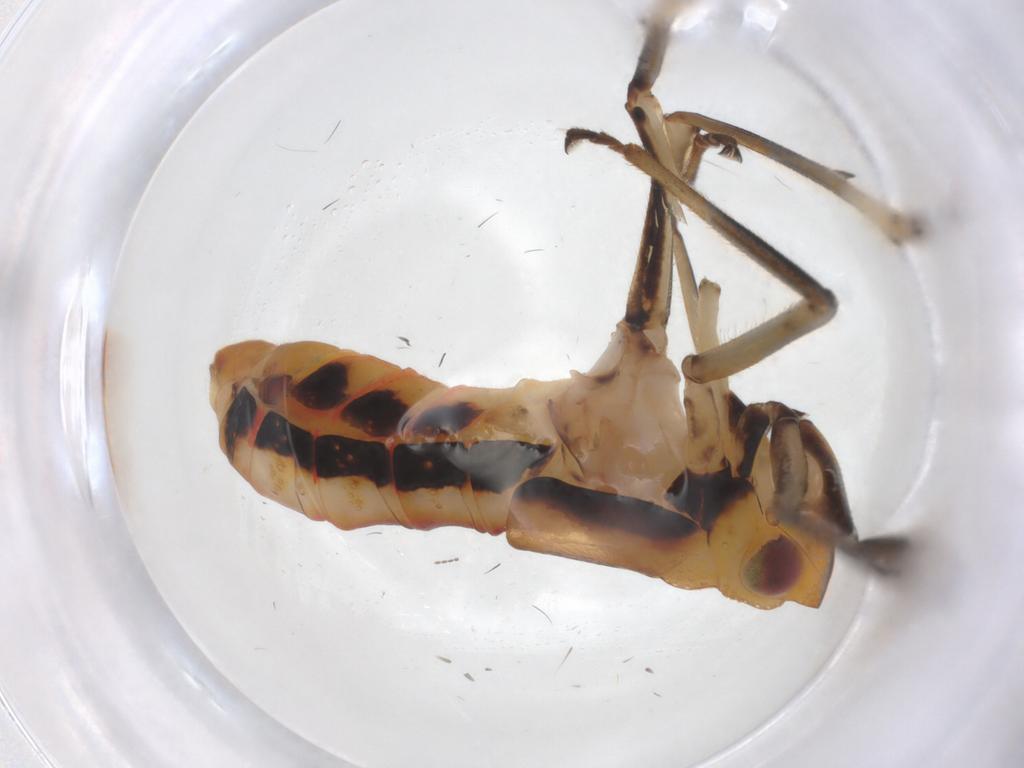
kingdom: Animalia
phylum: Arthropoda
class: Insecta
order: Hemiptera
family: Caliscelidae
